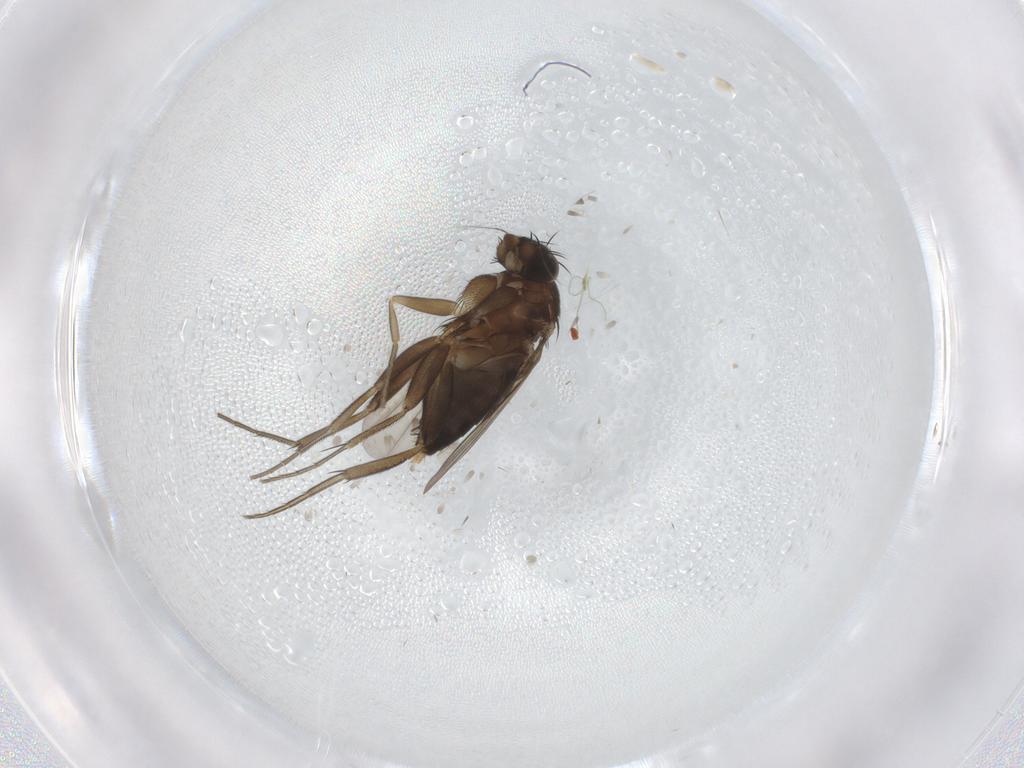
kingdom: Animalia
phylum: Arthropoda
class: Insecta
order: Diptera
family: Phoridae
